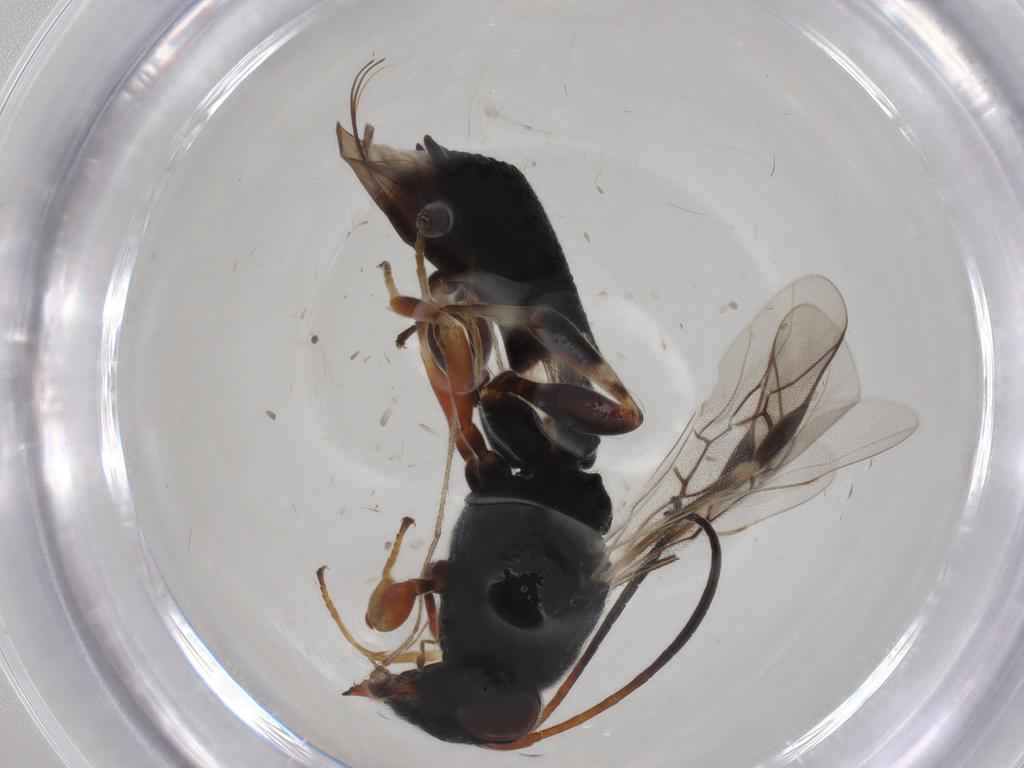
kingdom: Animalia
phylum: Arthropoda
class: Insecta
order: Hymenoptera
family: Braconidae
